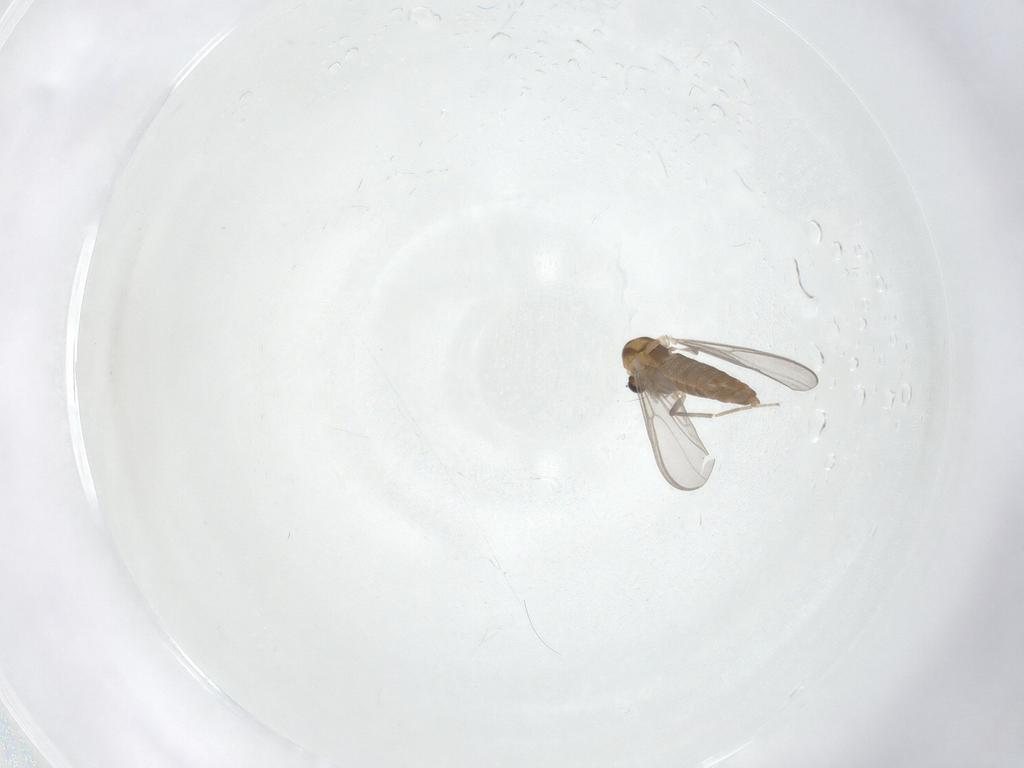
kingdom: Animalia
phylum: Arthropoda
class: Insecta
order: Diptera
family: Chironomidae
